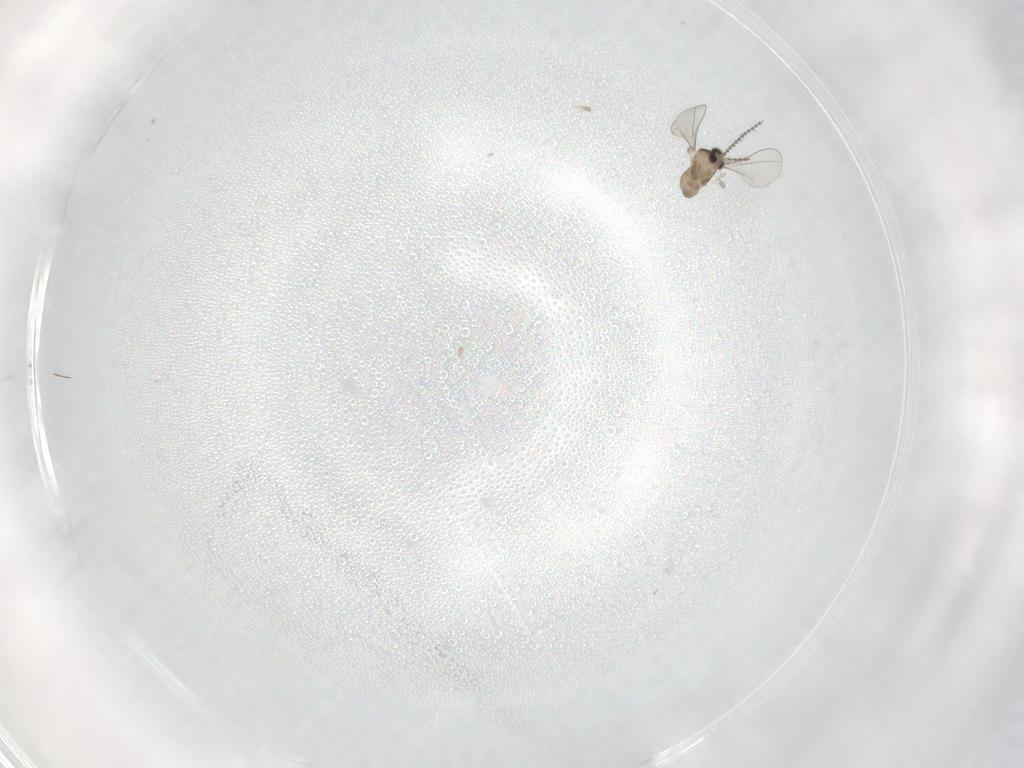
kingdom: Animalia
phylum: Arthropoda
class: Insecta
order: Diptera
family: Cecidomyiidae
